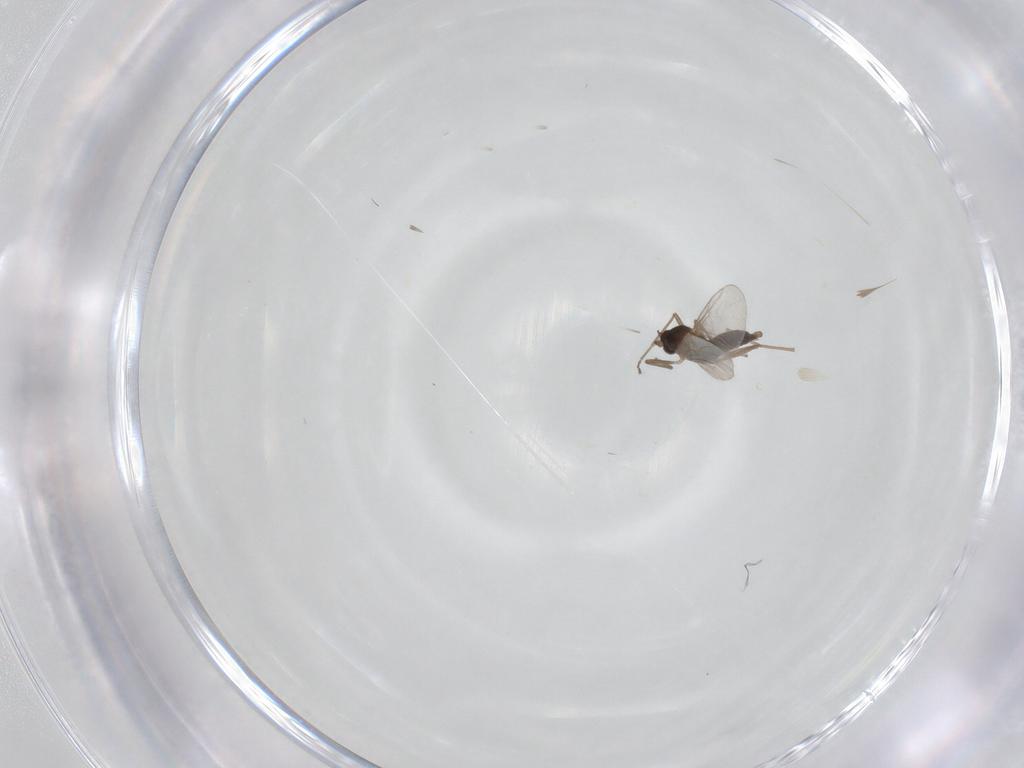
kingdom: Animalia
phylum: Arthropoda
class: Insecta
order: Diptera
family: Cecidomyiidae
